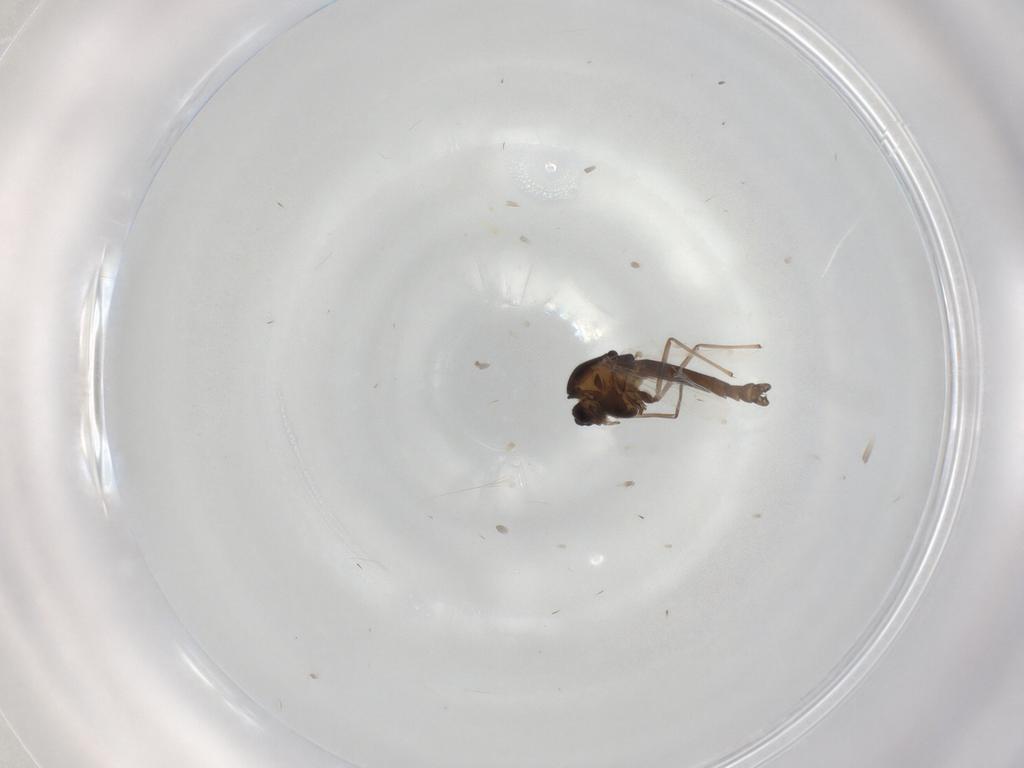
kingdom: Animalia
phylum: Arthropoda
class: Insecta
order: Diptera
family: Chironomidae
